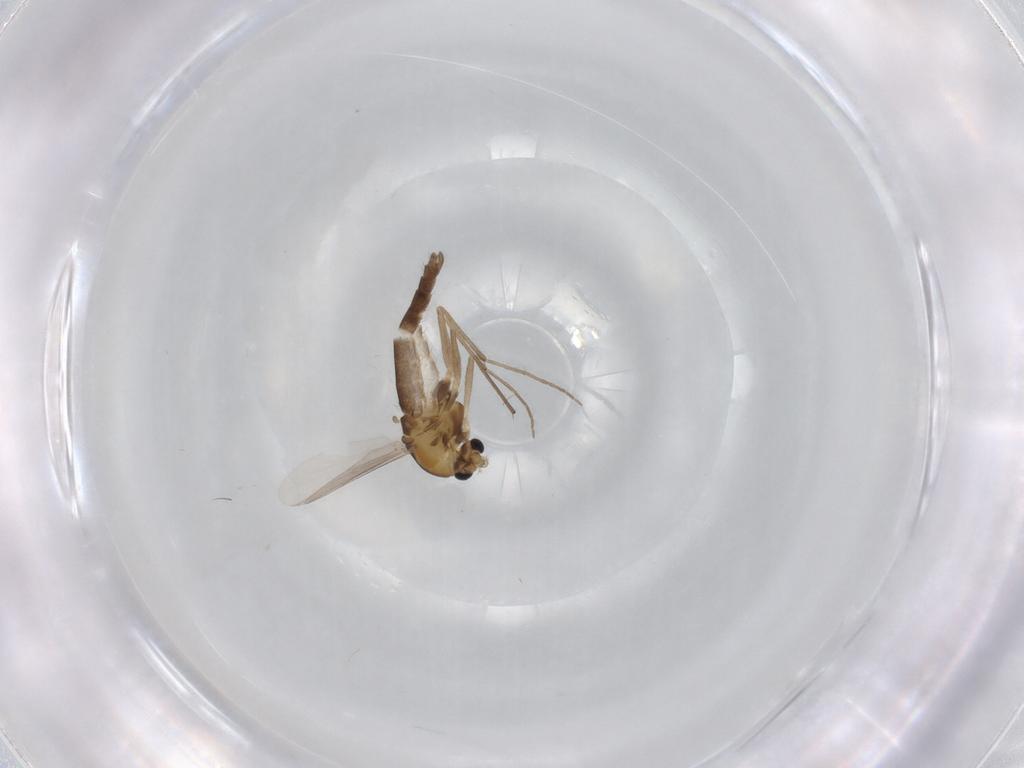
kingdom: Animalia
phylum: Arthropoda
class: Insecta
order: Diptera
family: Chironomidae
